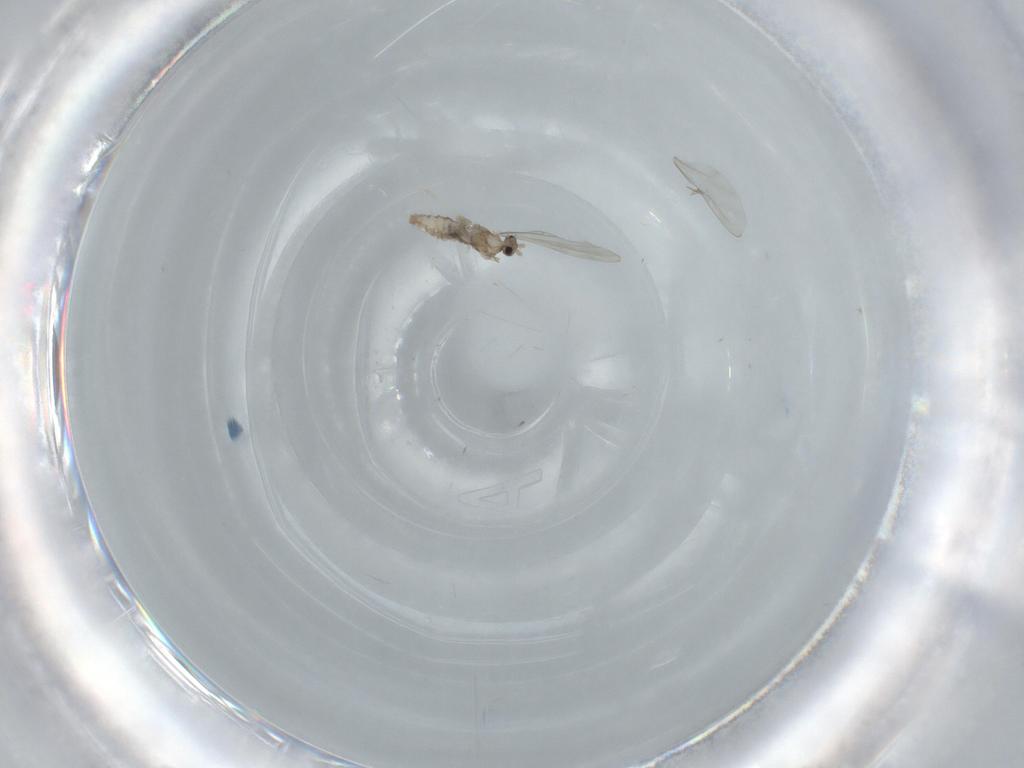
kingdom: Animalia
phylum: Arthropoda
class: Insecta
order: Diptera
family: Cecidomyiidae
